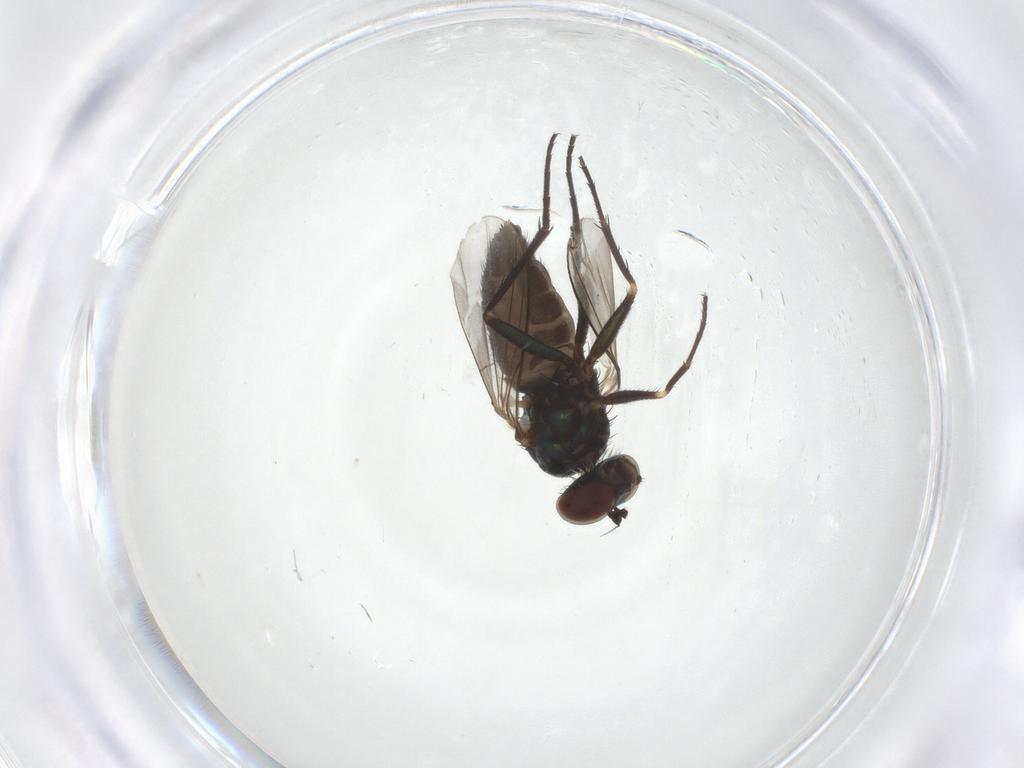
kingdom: Animalia
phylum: Arthropoda
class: Insecta
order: Diptera
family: Dolichopodidae
